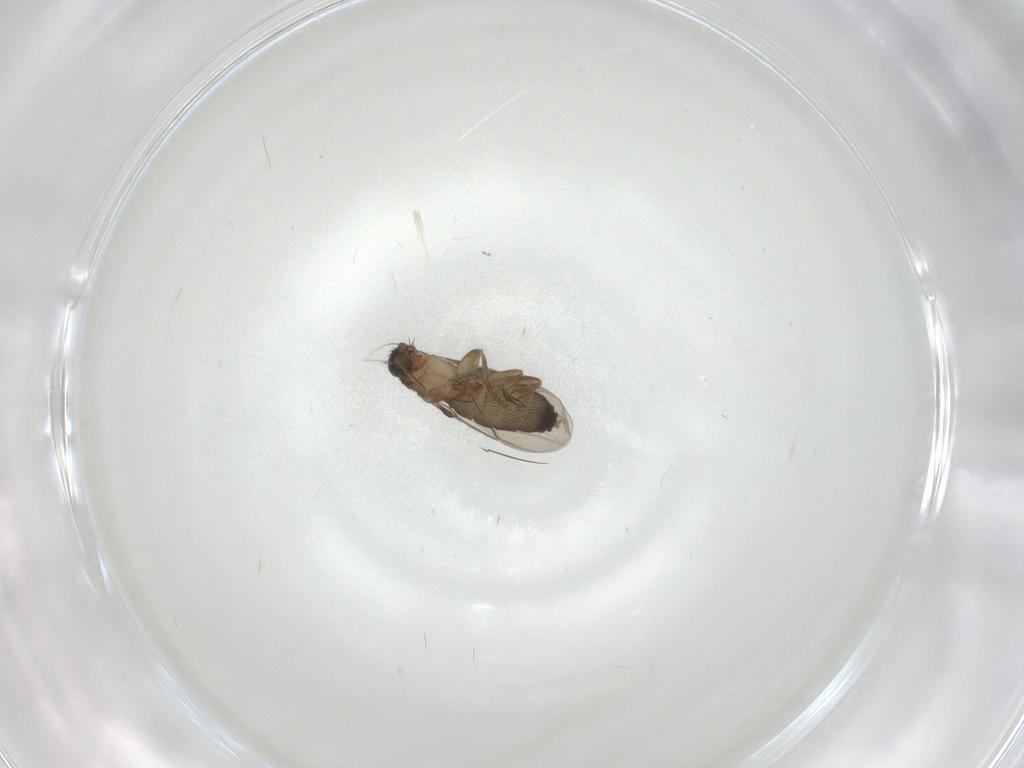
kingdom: Animalia
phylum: Arthropoda
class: Insecta
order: Diptera
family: Phoridae
